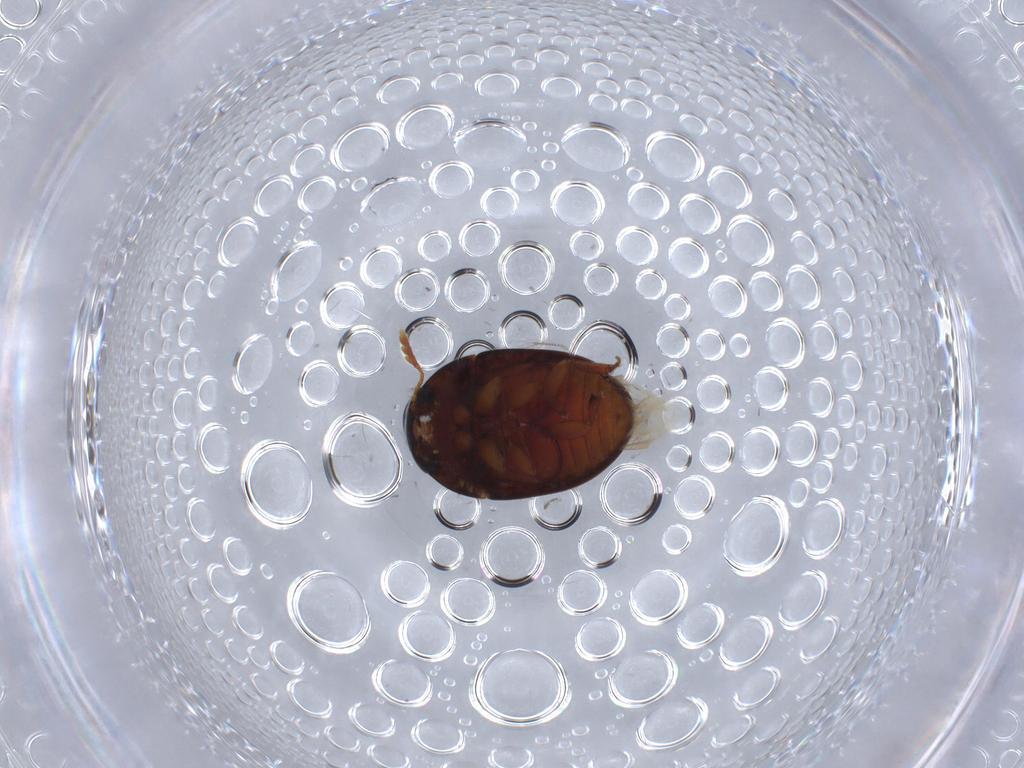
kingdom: Animalia
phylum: Arthropoda
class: Insecta
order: Coleoptera
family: Phalacridae
